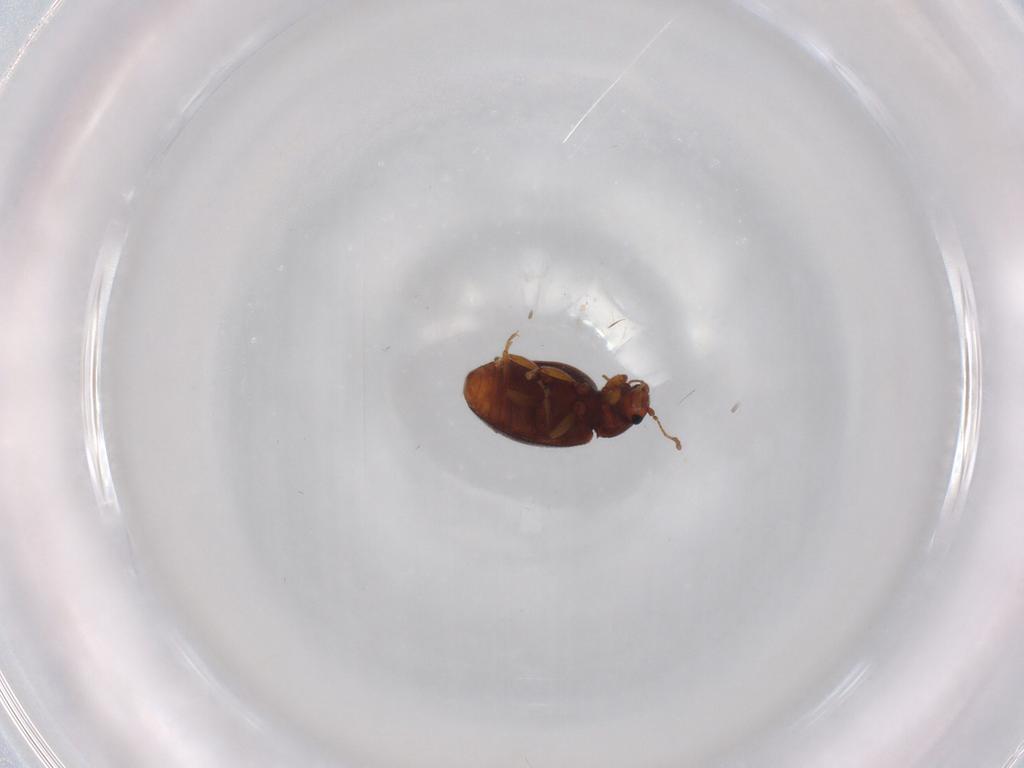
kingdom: Animalia
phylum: Arthropoda
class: Insecta
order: Coleoptera
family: Latridiidae
